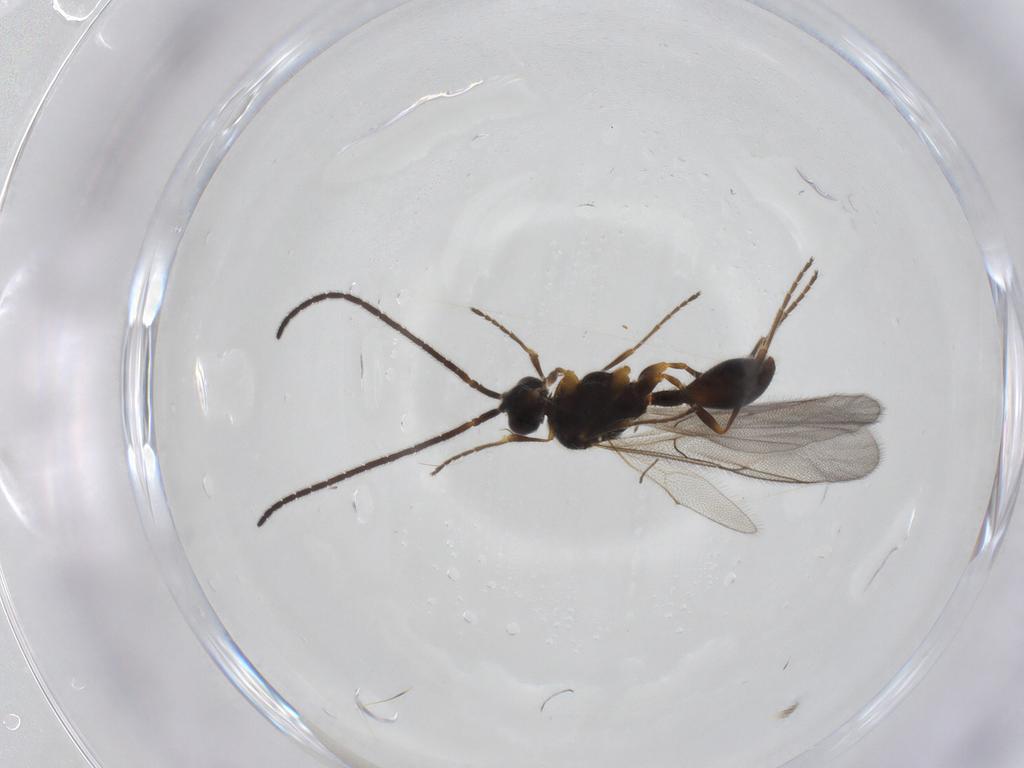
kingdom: Animalia
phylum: Arthropoda
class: Insecta
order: Hymenoptera
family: Diapriidae
